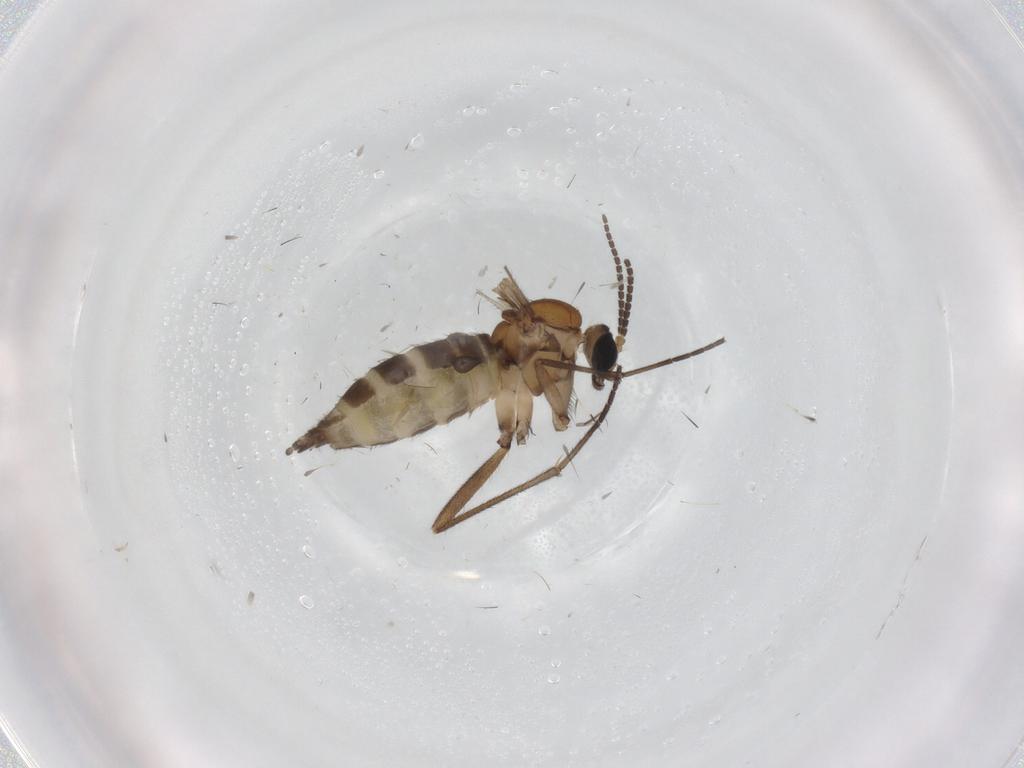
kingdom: Animalia
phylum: Arthropoda
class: Insecta
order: Diptera
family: Sciaridae
